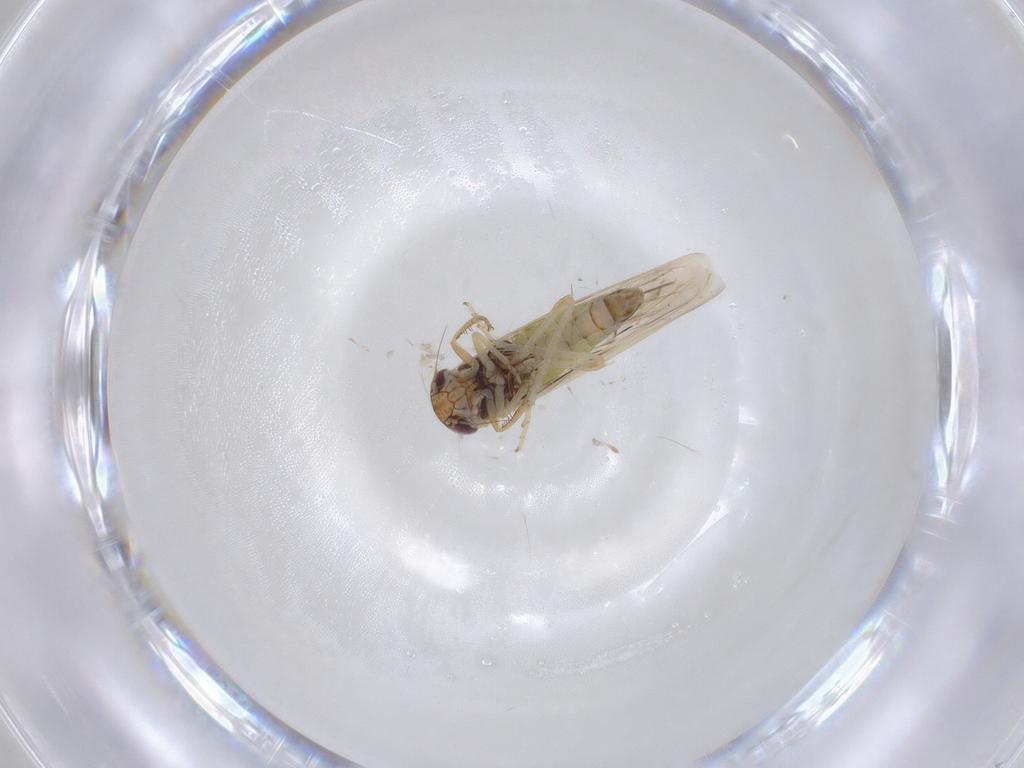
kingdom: Animalia
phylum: Arthropoda
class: Insecta
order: Hemiptera
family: Cicadellidae
